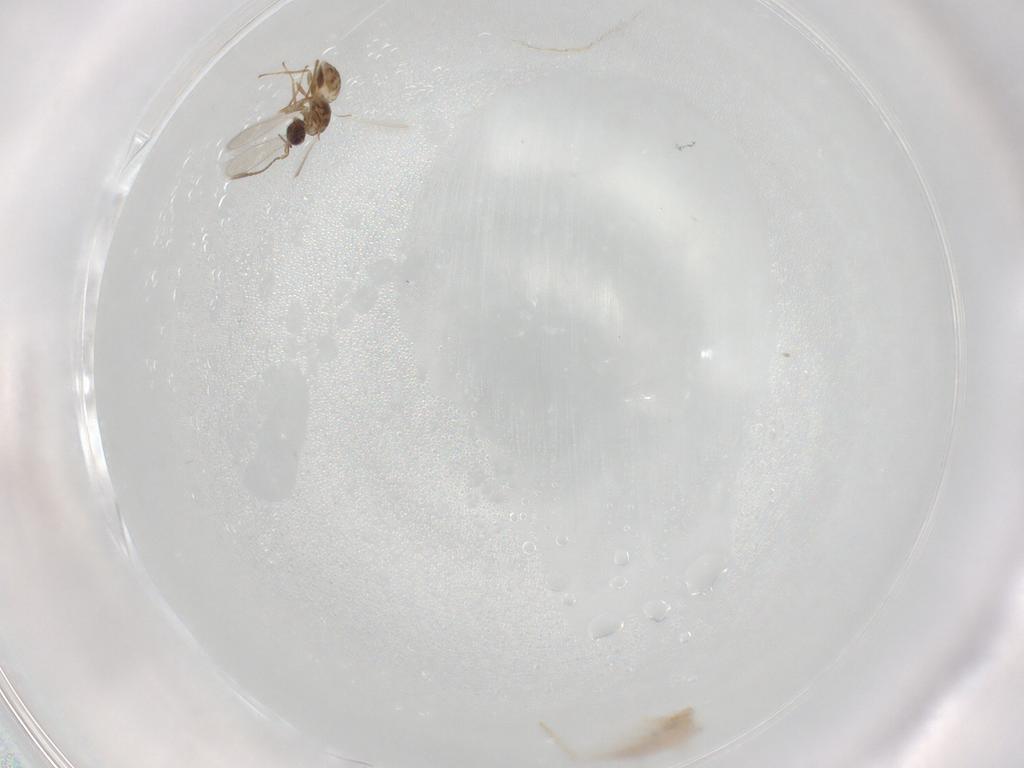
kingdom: Animalia
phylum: Arthropoda
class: Insecta
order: Hymenoptera
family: Mymaridae
